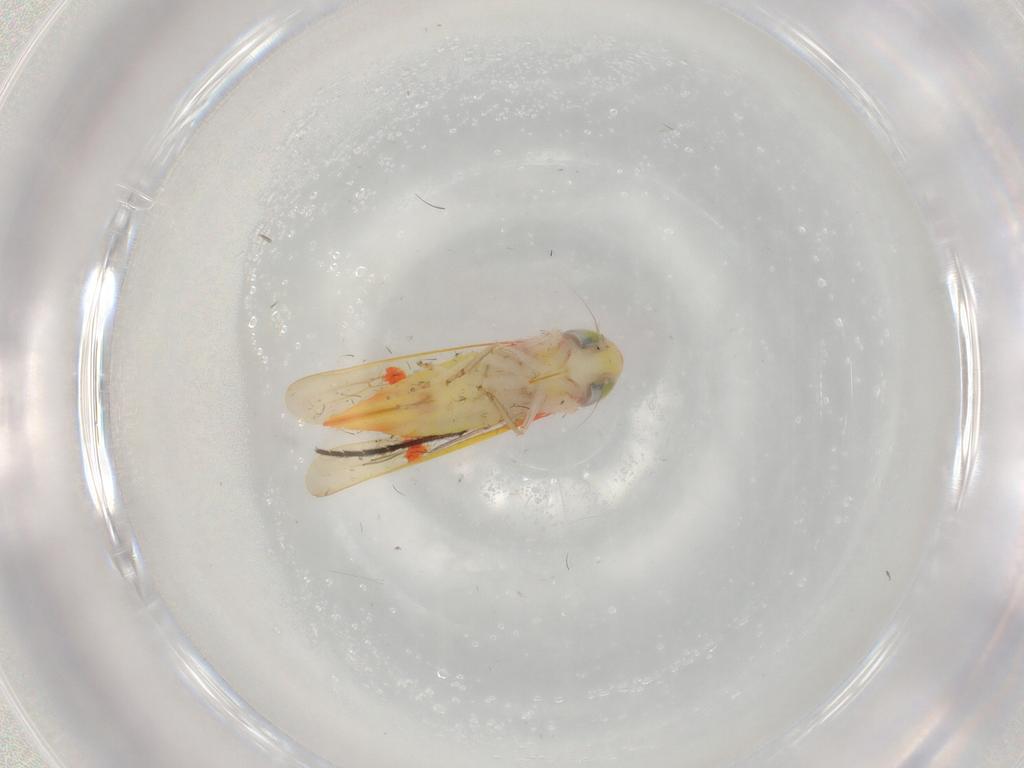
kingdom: Animalia
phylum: Arthropoda
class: Insecta
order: Hemiptera
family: Cicadellidae
